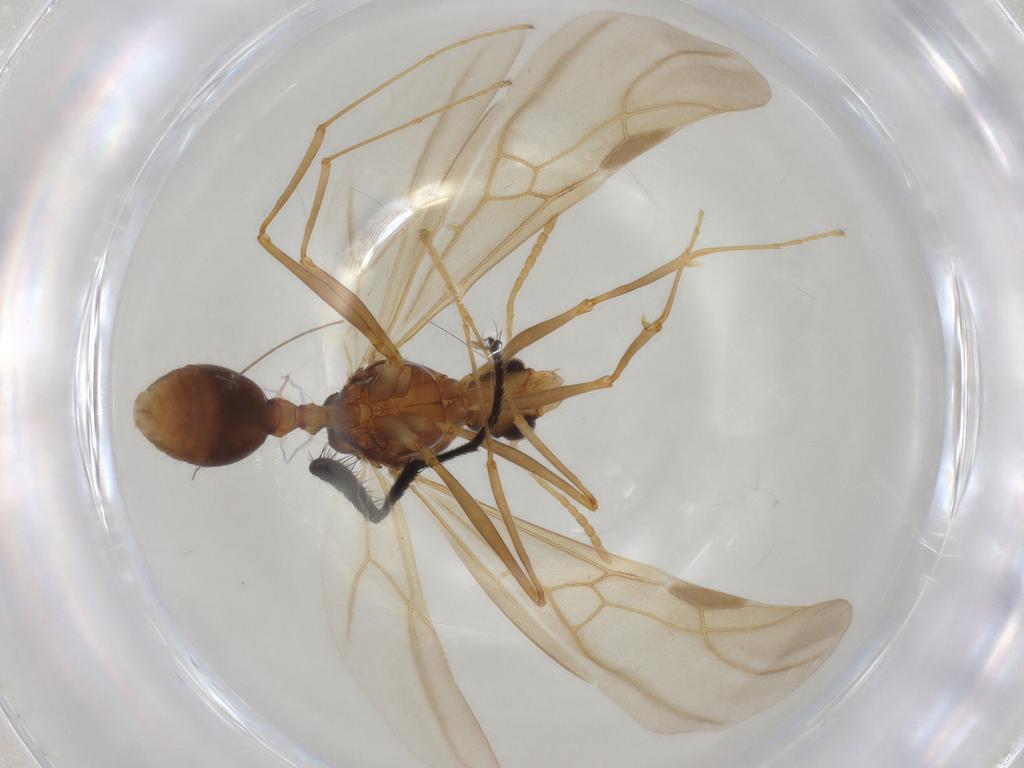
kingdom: Animalia
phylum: Arthropoda
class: Insecta
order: Hymenoptera
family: Formicidae
